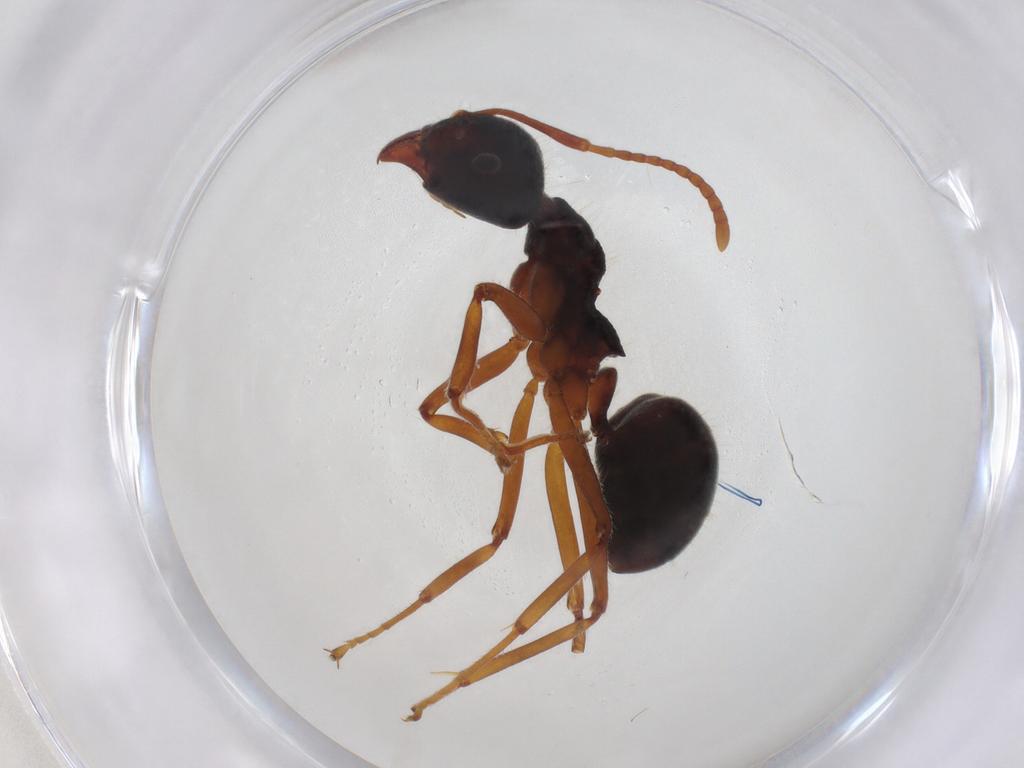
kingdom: Animalia
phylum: Arthropoda
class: Insecta
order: Hymenoptera
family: Formicidae
